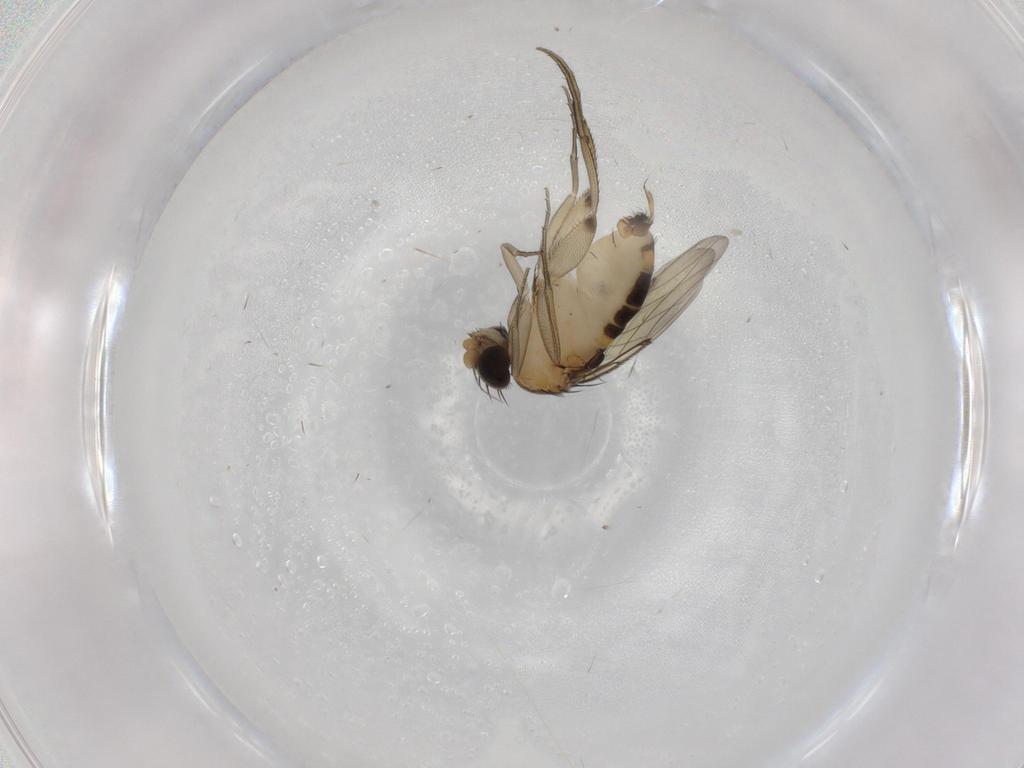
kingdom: Animalia
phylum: Arthropoda
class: Insecta
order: Diptera
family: Phoridae
